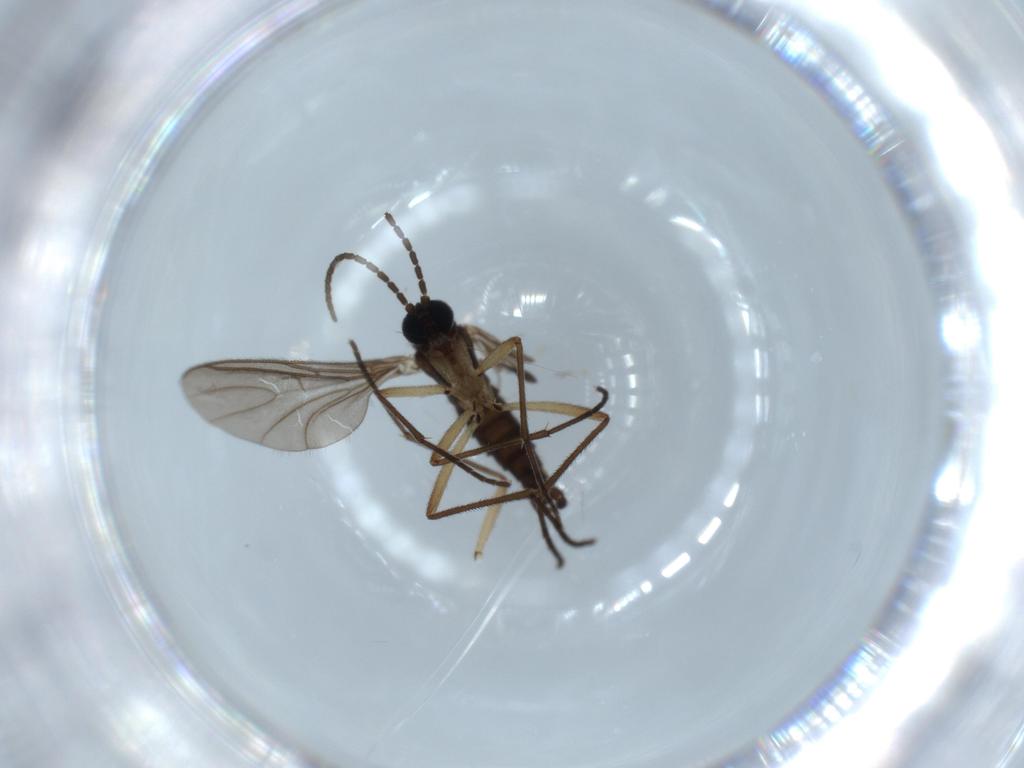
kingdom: Animalia
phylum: Arthropoda
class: Insecta
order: Diptera
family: Sciaridae
